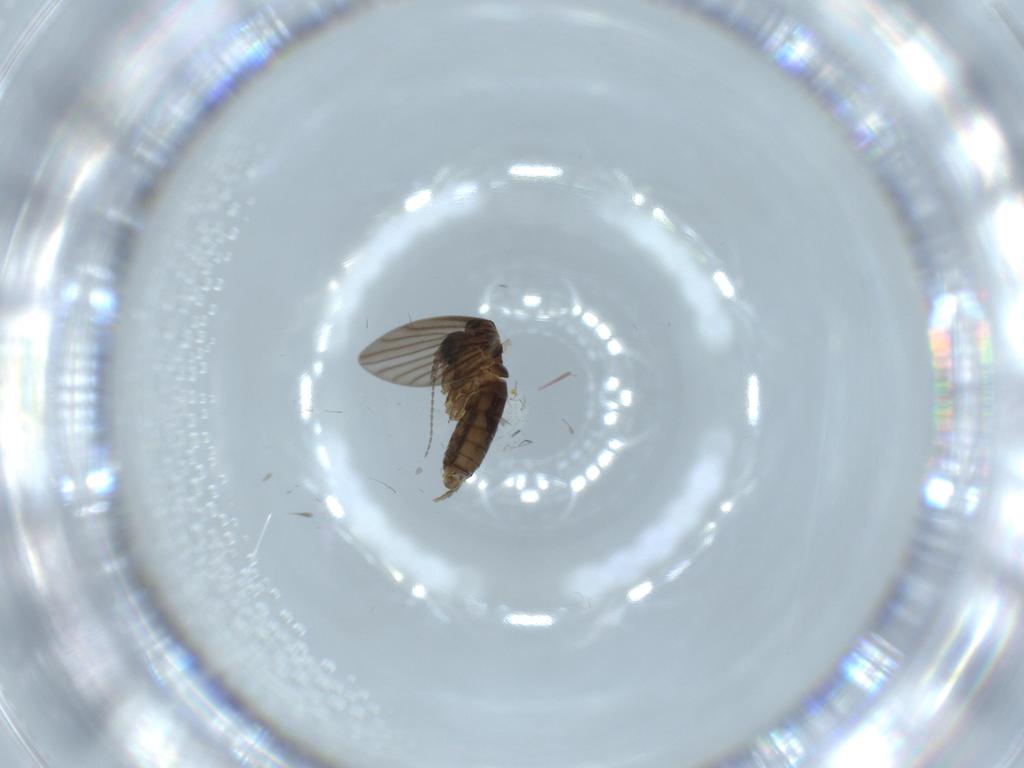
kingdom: Animalia
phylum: Arthropoda
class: Insecta
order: Diptera
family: Psychodidae
